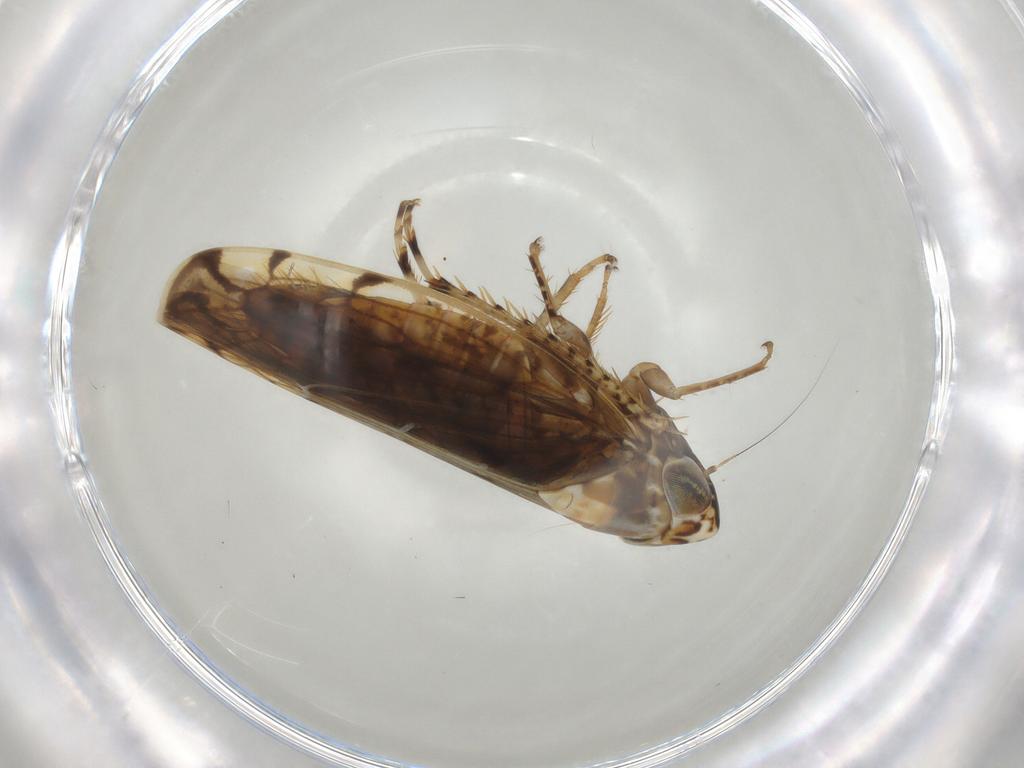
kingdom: Animalia
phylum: Arthropoda
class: Insecta
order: Hemiptera
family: Cicadellidae
